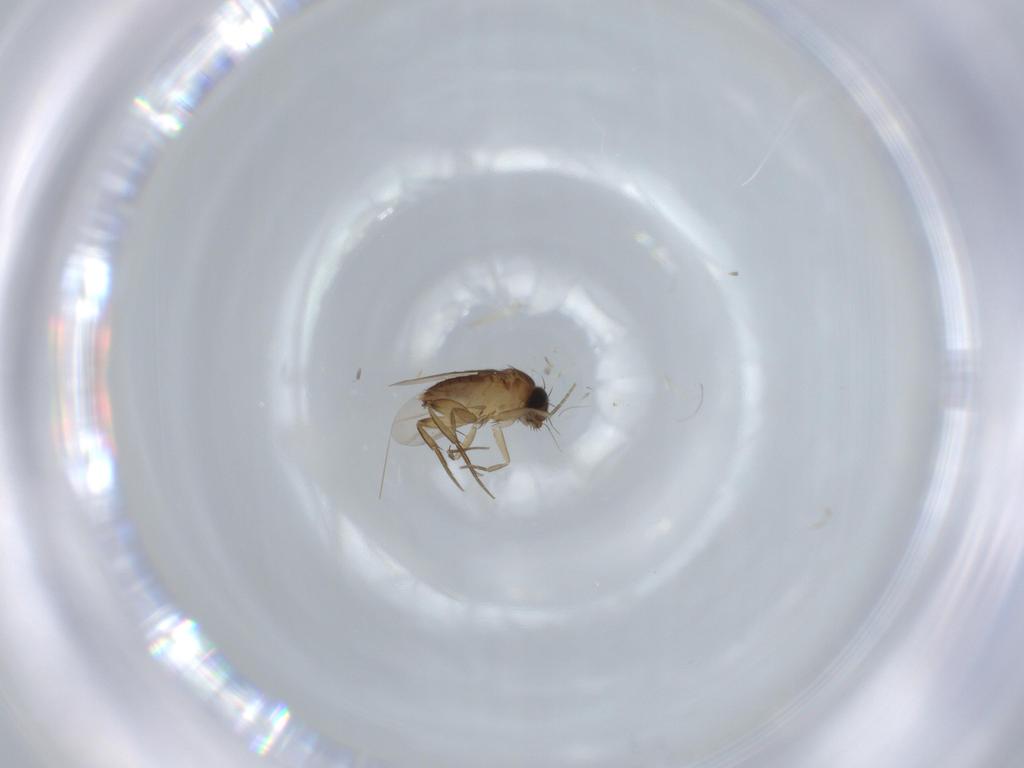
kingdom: Animalia
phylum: Arthropoda
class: Insecta
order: Diptera
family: Phoridae
